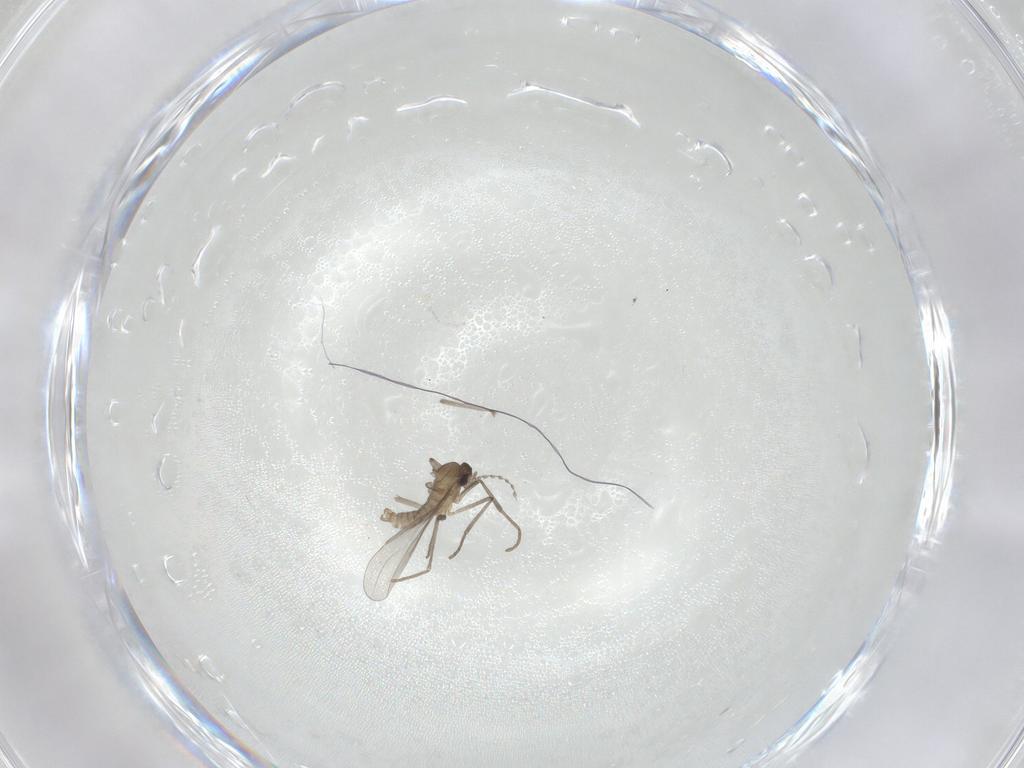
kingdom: Animalia
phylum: Arthropoda
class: Insecta
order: Diptera
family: Cecidomyiidae
